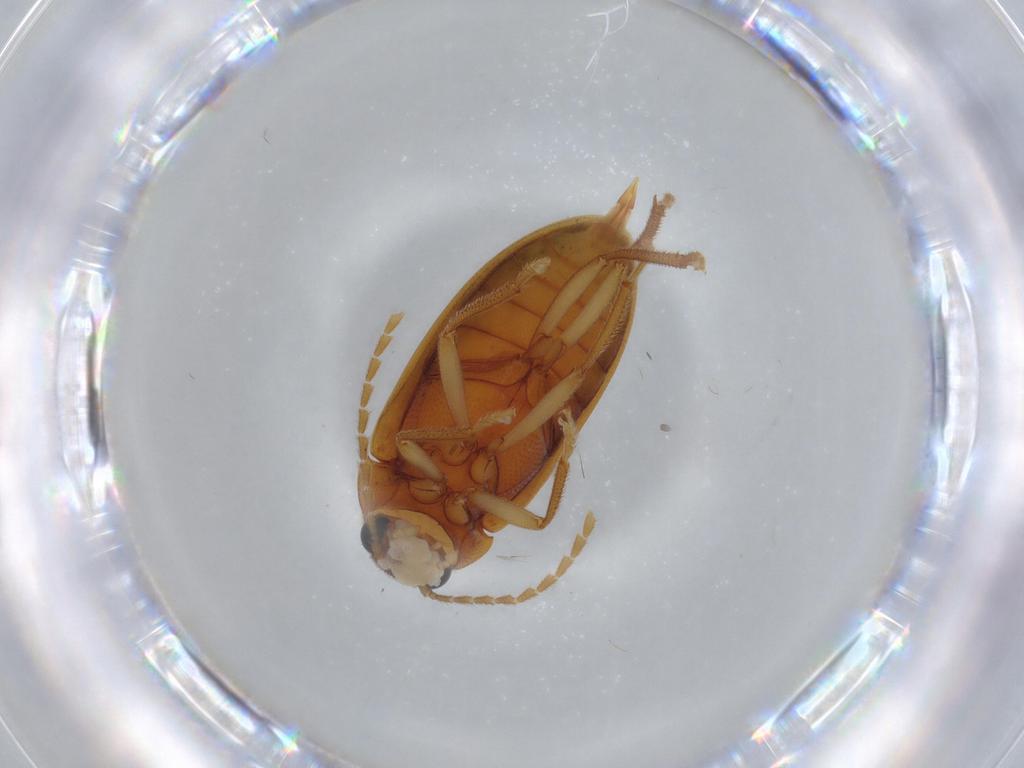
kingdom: Animalia
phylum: Arthropoda
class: Insecta
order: Coleoptera
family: Ptilodactylidae
